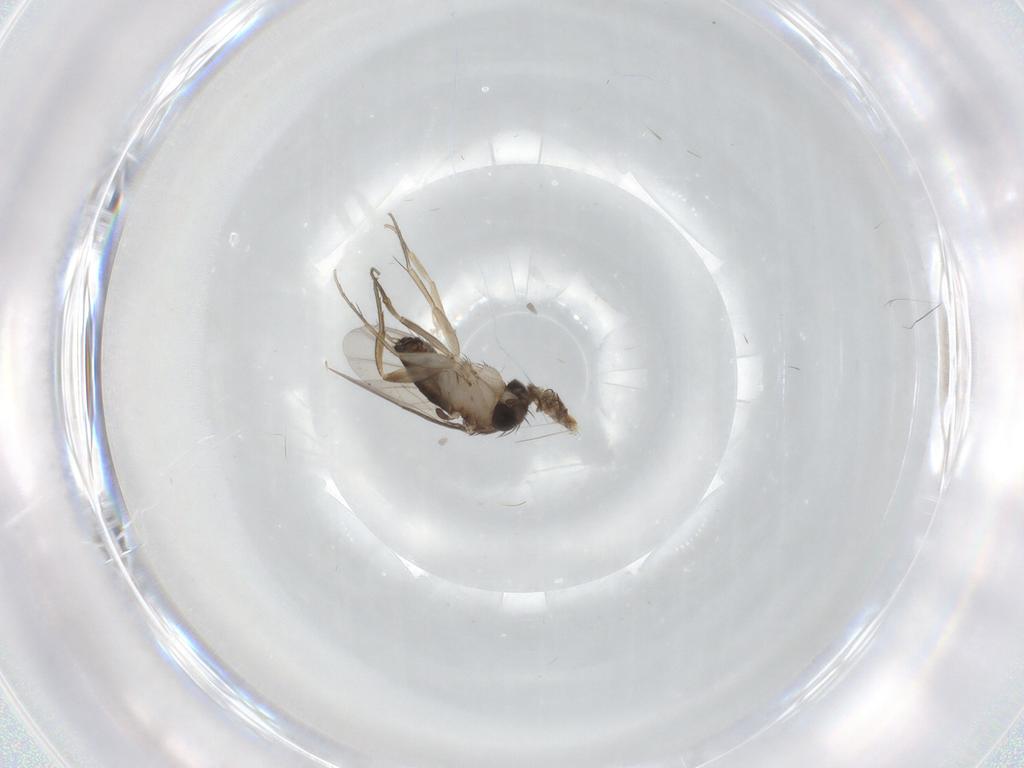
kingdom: Animalia
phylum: Arthropoda
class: Insecta
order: Diptera
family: Phoridae
